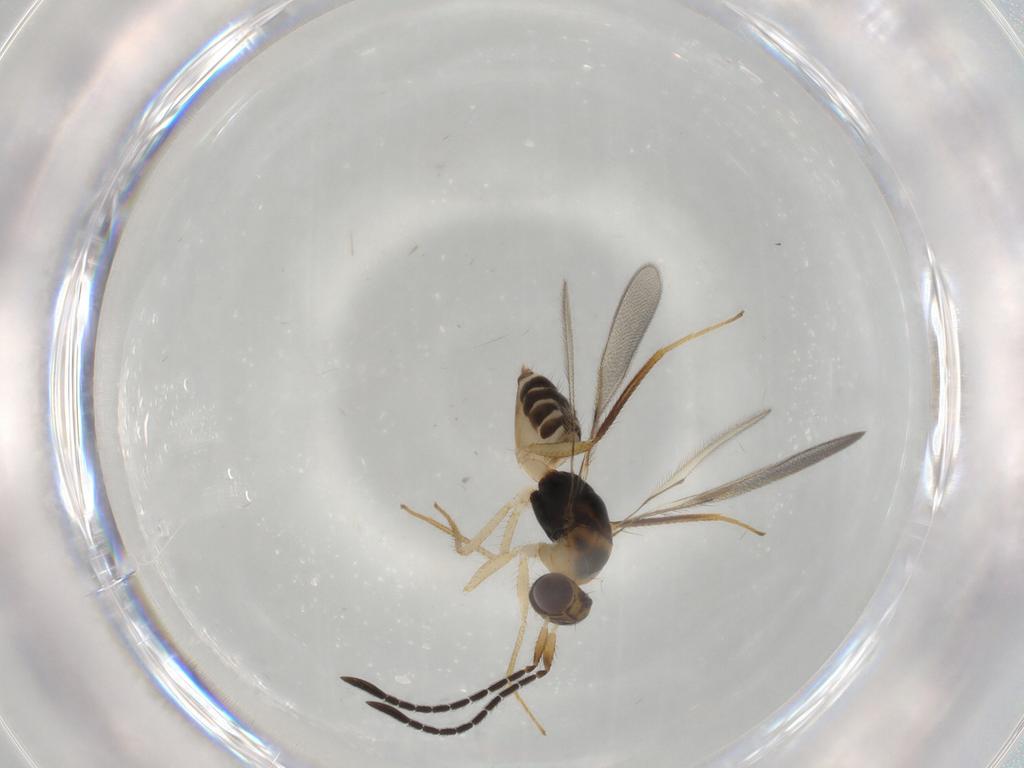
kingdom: Animalia
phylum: Arthropoda
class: Insecta
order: Hymenoptera
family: Mymaridae
